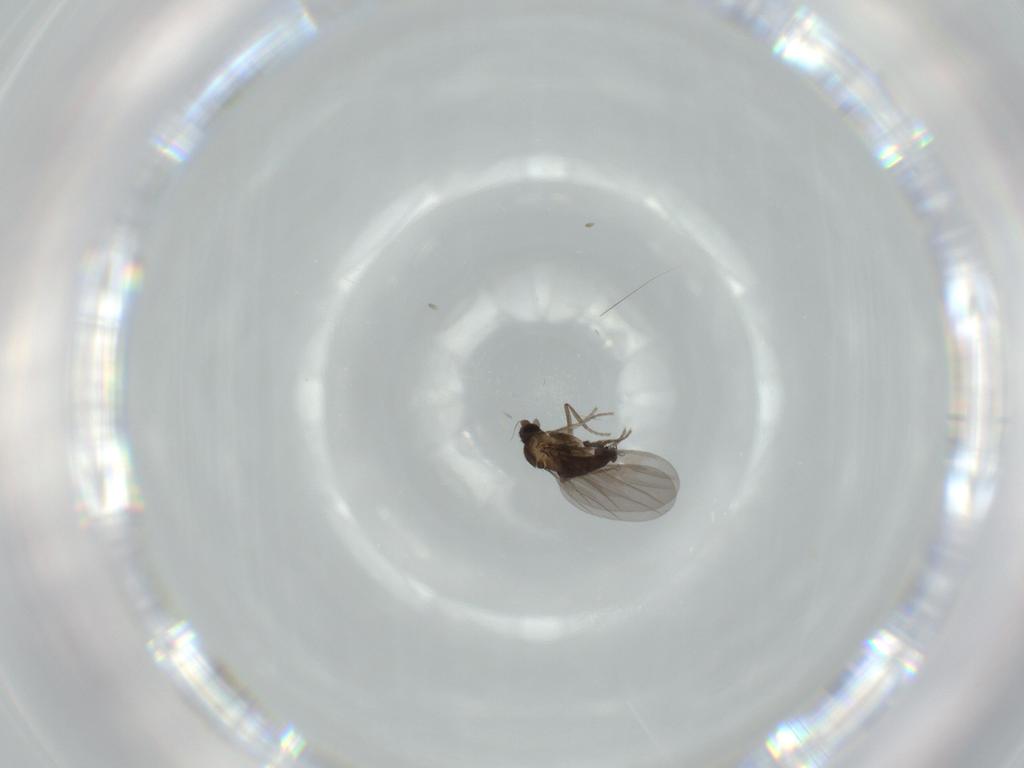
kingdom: Animalia
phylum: Arthropoda
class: Insecta
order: Diptera
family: Phoridae
